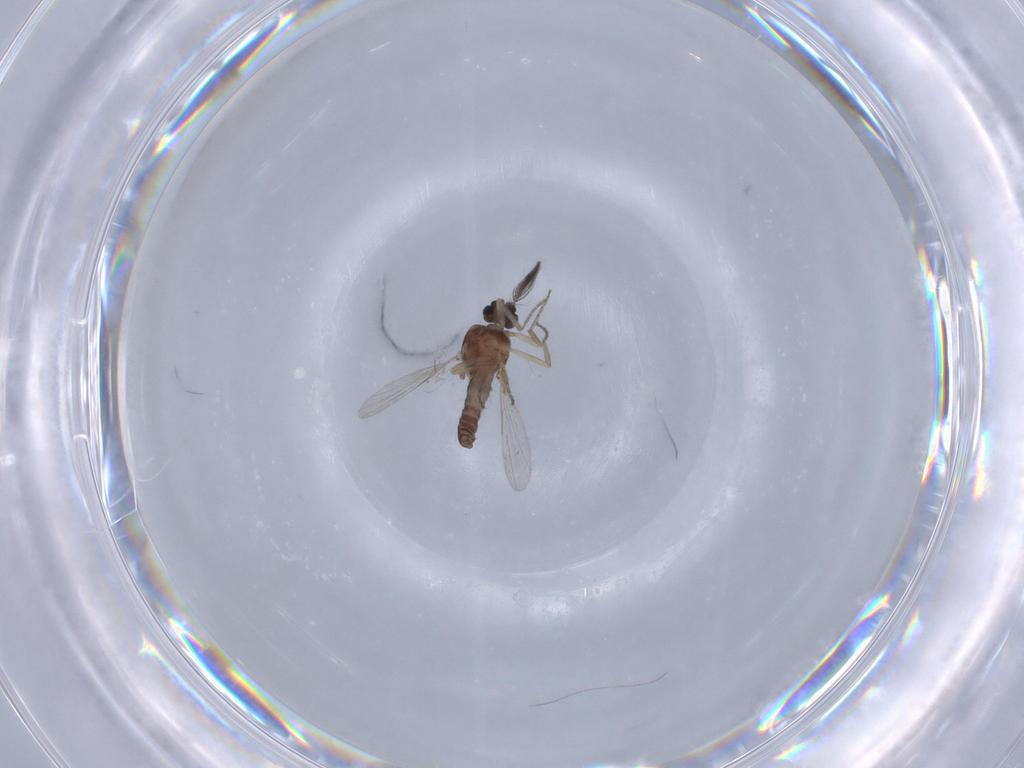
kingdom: Animalia
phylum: Arthropoda
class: Insecta
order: Diptera
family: Ceratopogonidae
